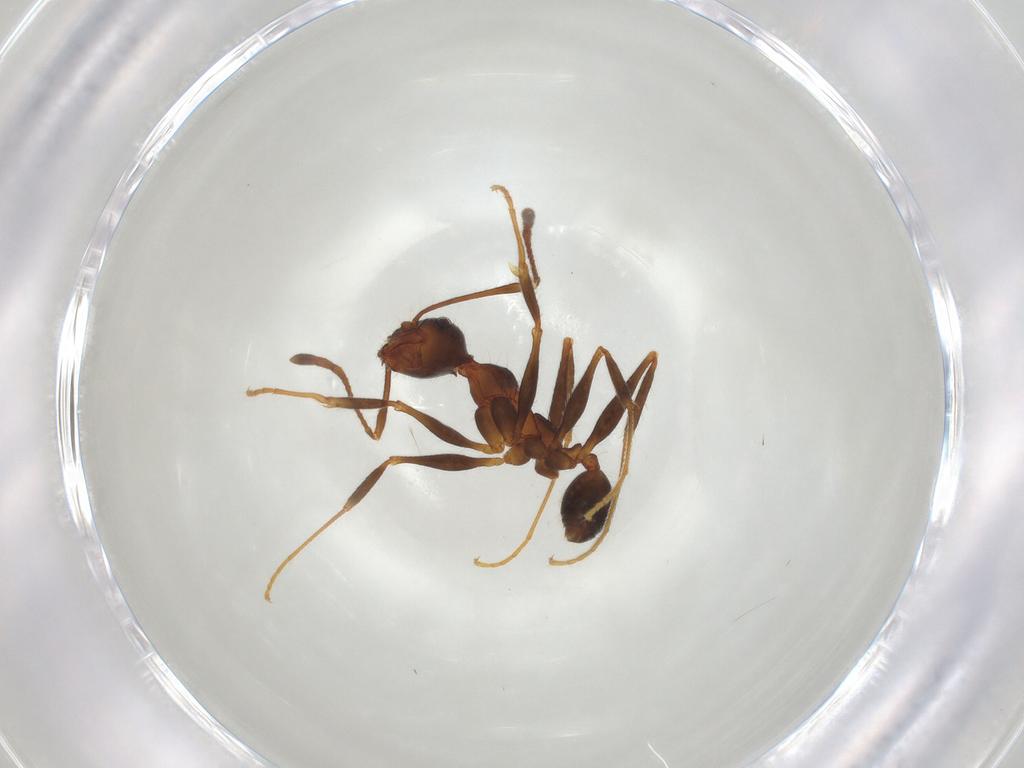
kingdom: Animalia
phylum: Arthropoda
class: Insecta
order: Hymenoptera
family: Formicidae
